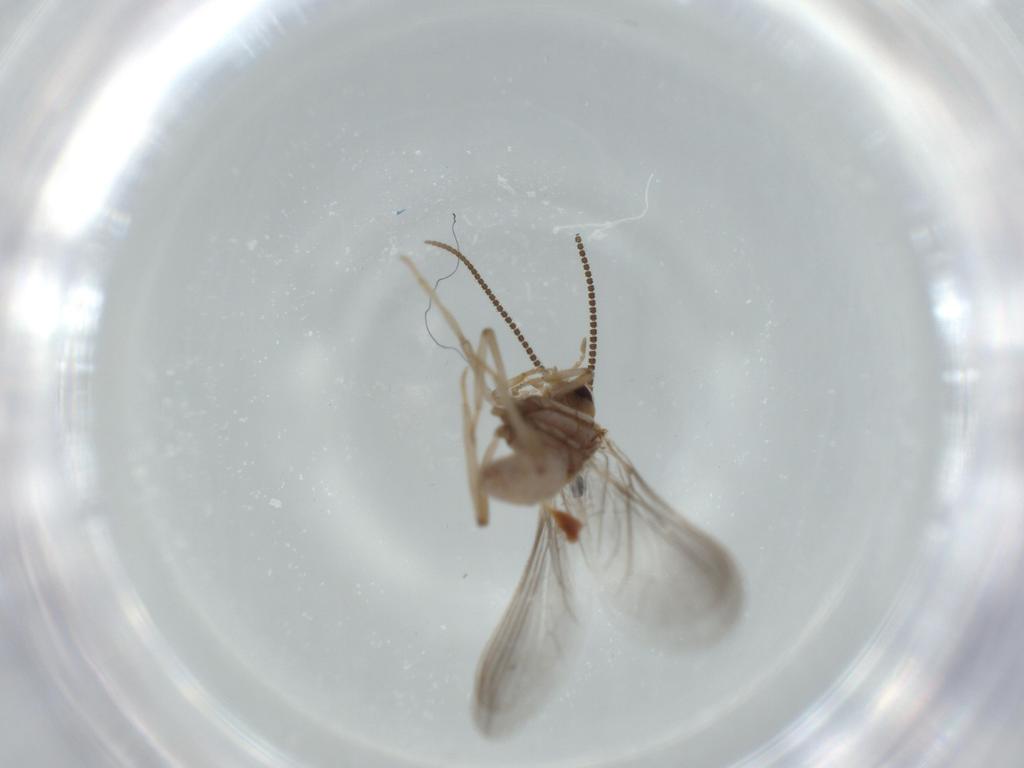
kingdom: Animalia
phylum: Arthropoda
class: Insecta
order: Neuroptera
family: Coniopterygidae
